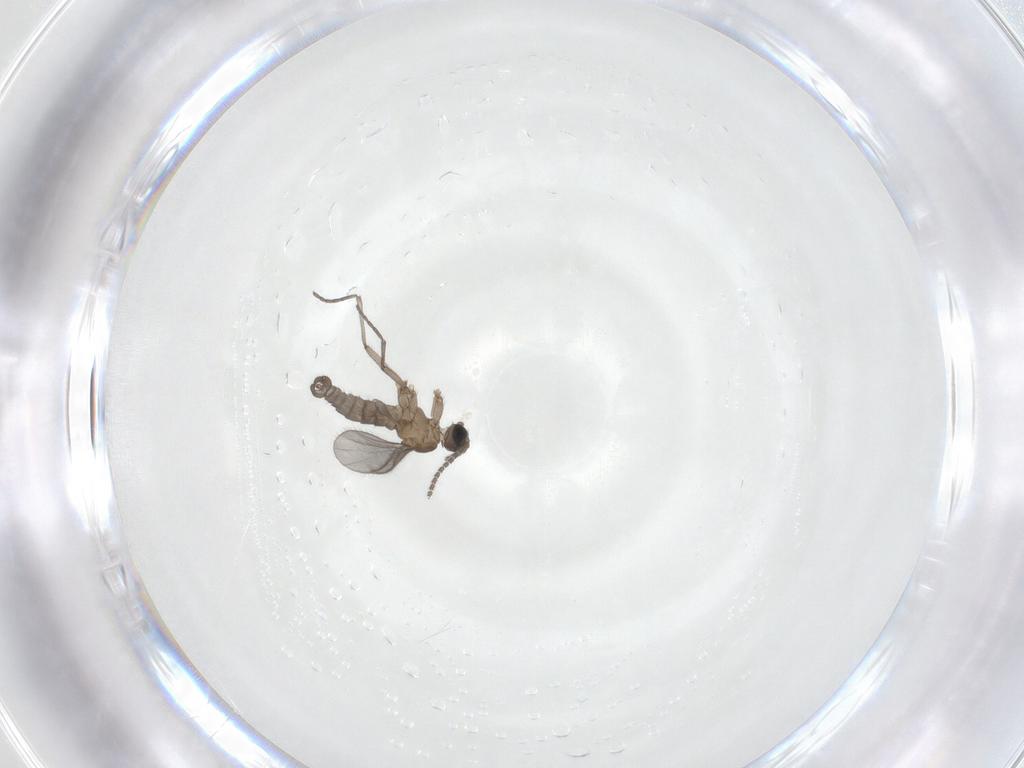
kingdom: Animalia
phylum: Arthropoda
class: Insecta
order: Diptera
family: Sciaridae
